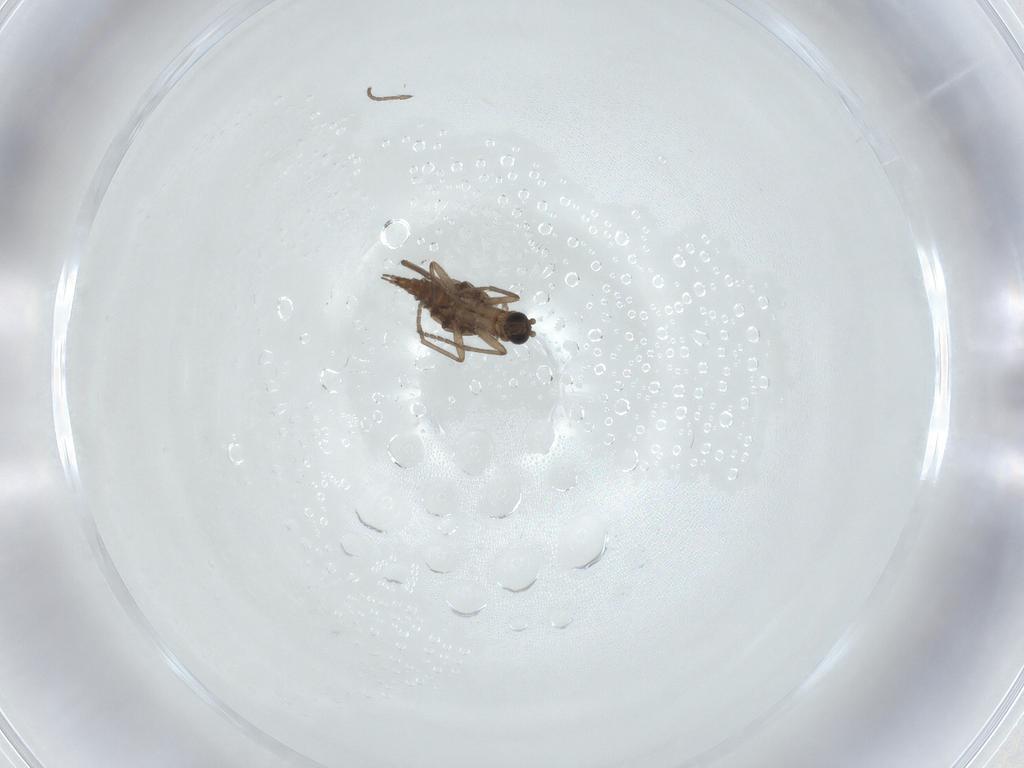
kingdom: Animalia
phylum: Arthropoda
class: Insecta
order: Diptera
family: Sciaridae
